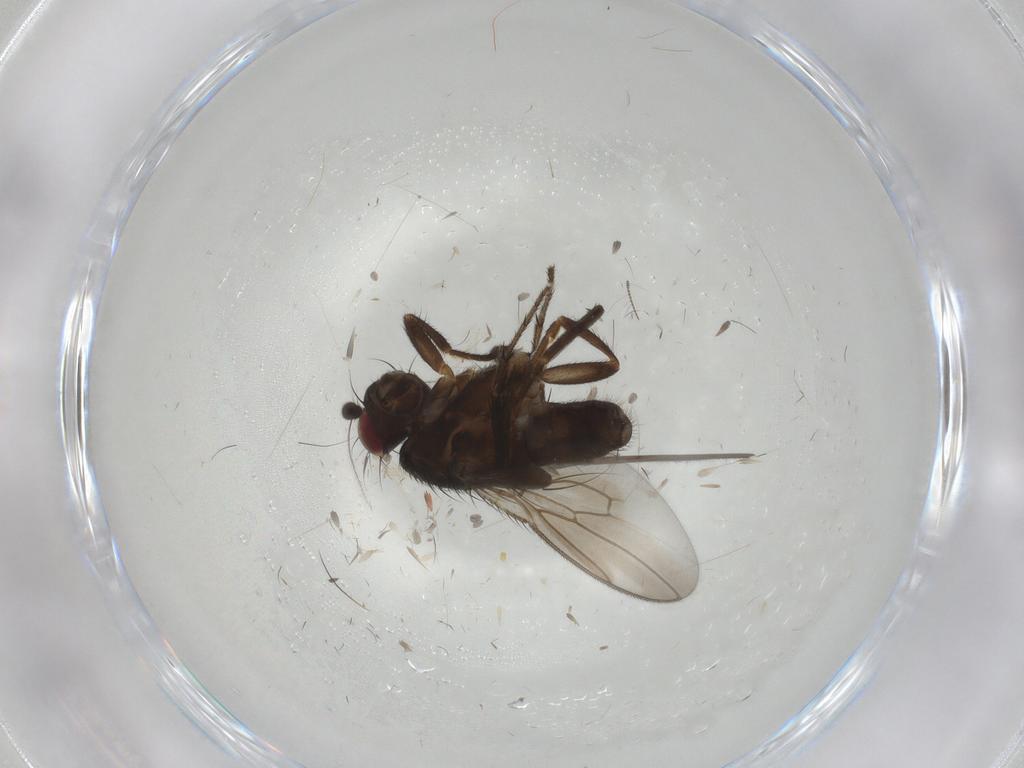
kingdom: Animalia
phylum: Arthropoda
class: Insecta
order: Diptera
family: Sphaeroceridae
